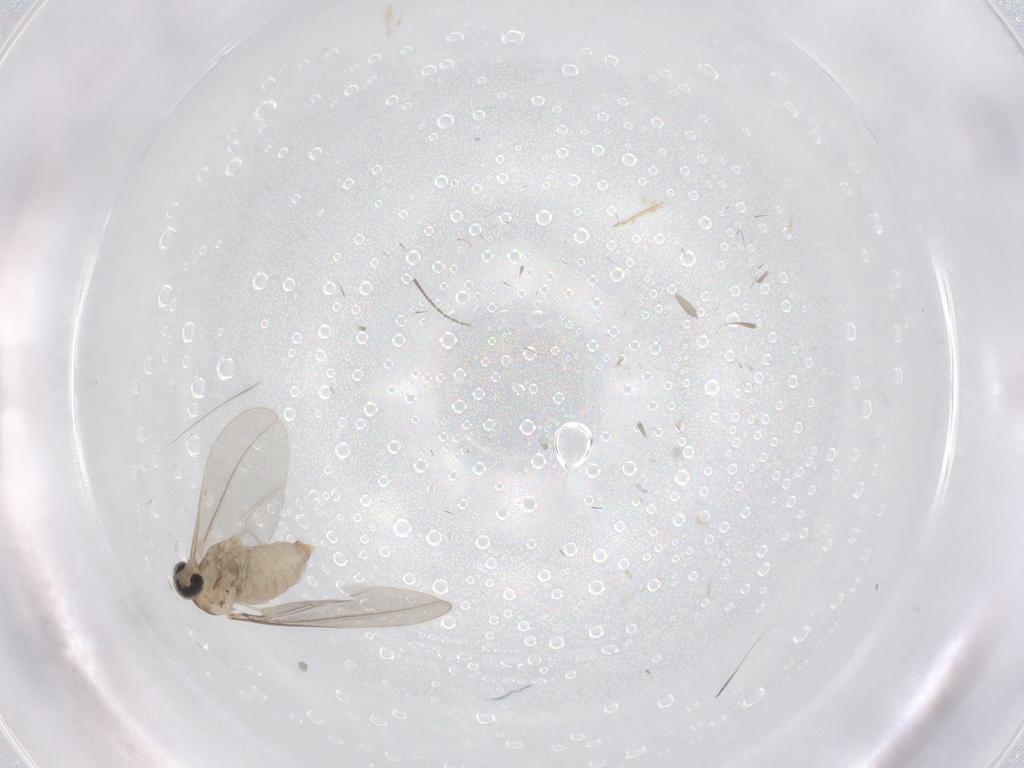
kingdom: Animalia
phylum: Arthropoda
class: Insecta
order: Diptera
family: Cecidomyiidae
